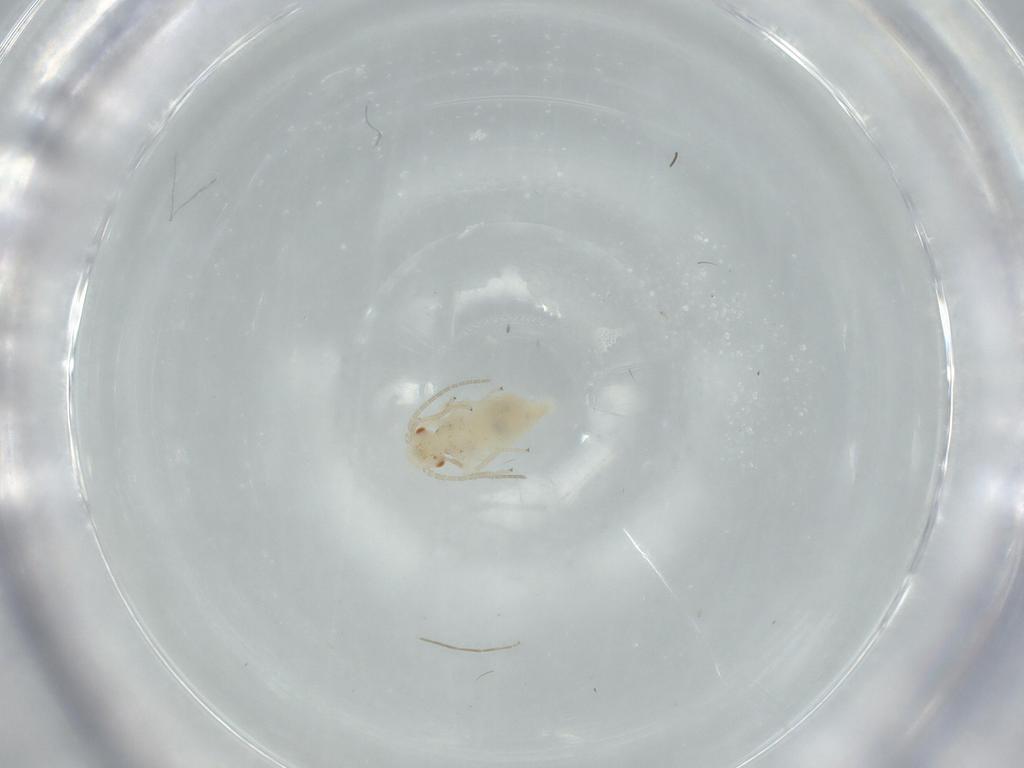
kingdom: Animalia
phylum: Arthropoda
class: Insecta
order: Psocodea
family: Caeciliusidae
